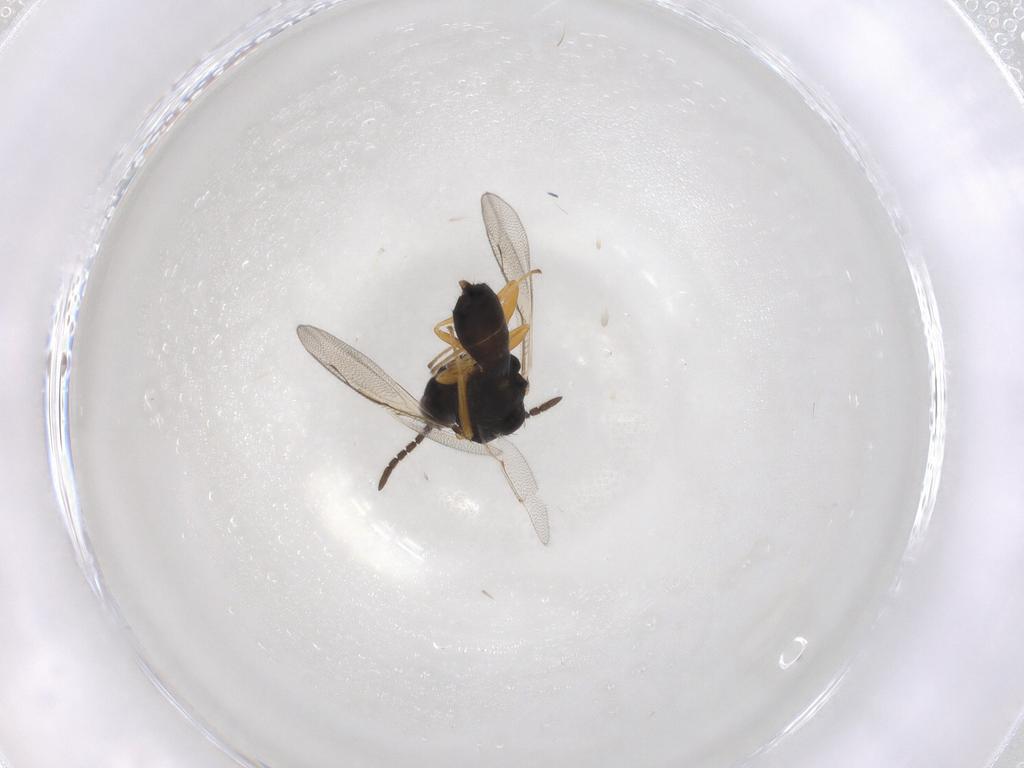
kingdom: Animalia
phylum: Arthropoda
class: Insecta
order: Hymenoptera
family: Pteromalidae
